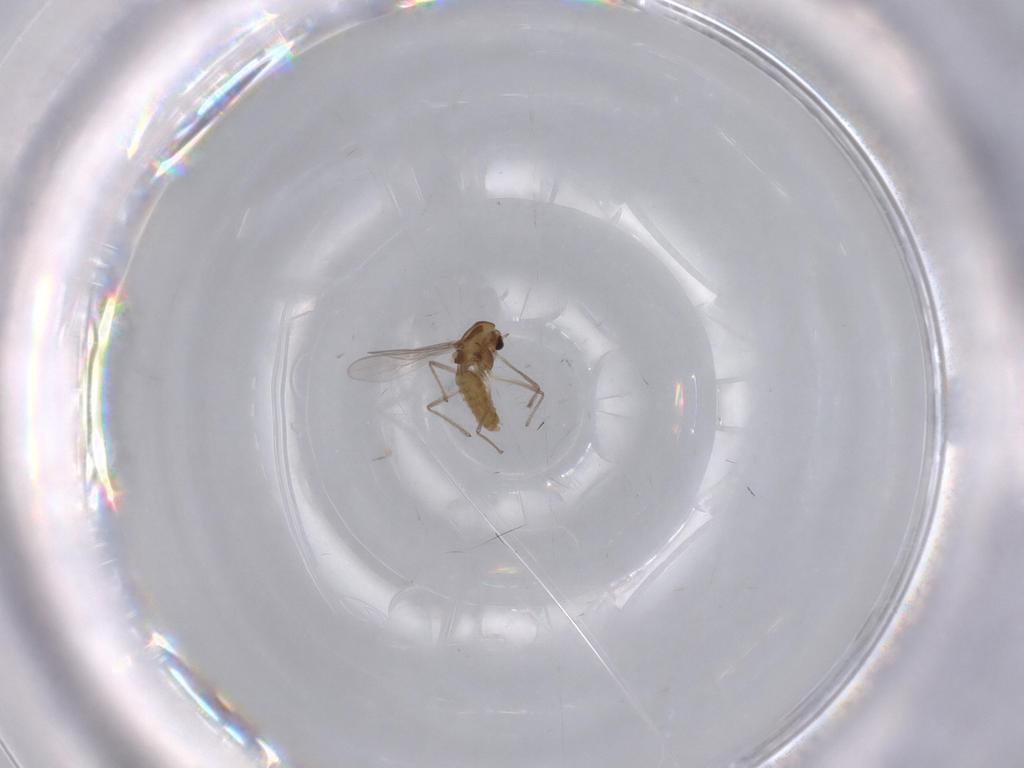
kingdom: Animalia
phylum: Arthropoda
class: Insecta
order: Diptera
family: Chironomidae
